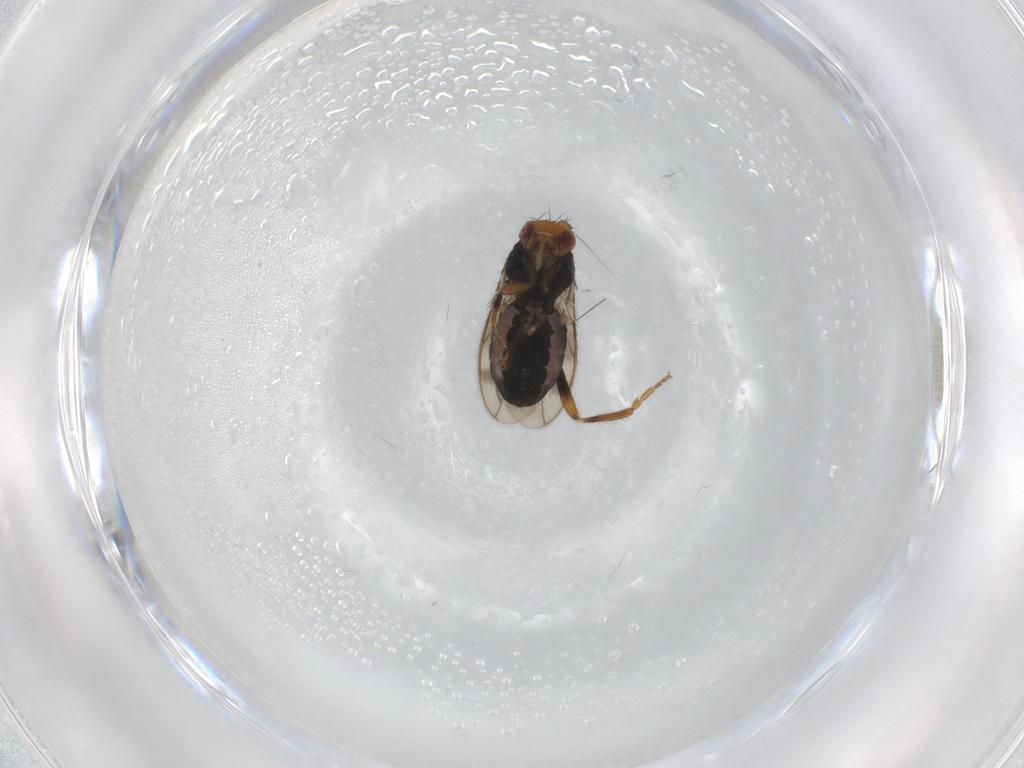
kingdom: Animalia
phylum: Arthropoda
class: Insecta
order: Diptera
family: Sphaeroceridae
